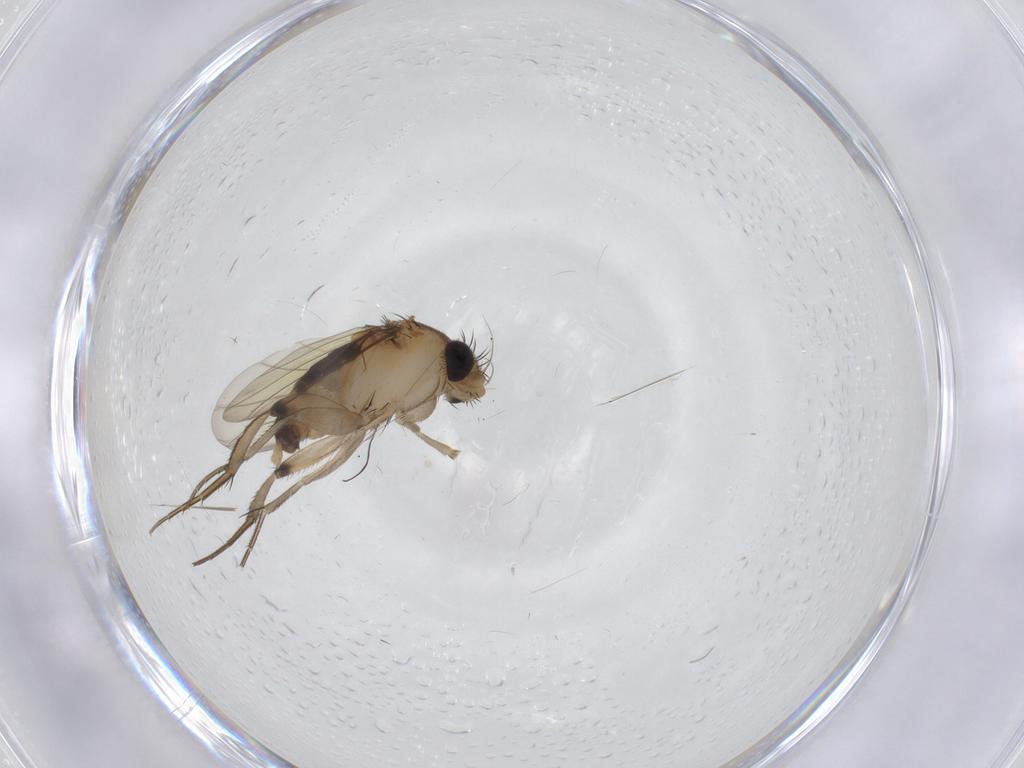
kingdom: Animalia
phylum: Arthropoda
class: Insecta
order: Diptera
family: Phoridae
